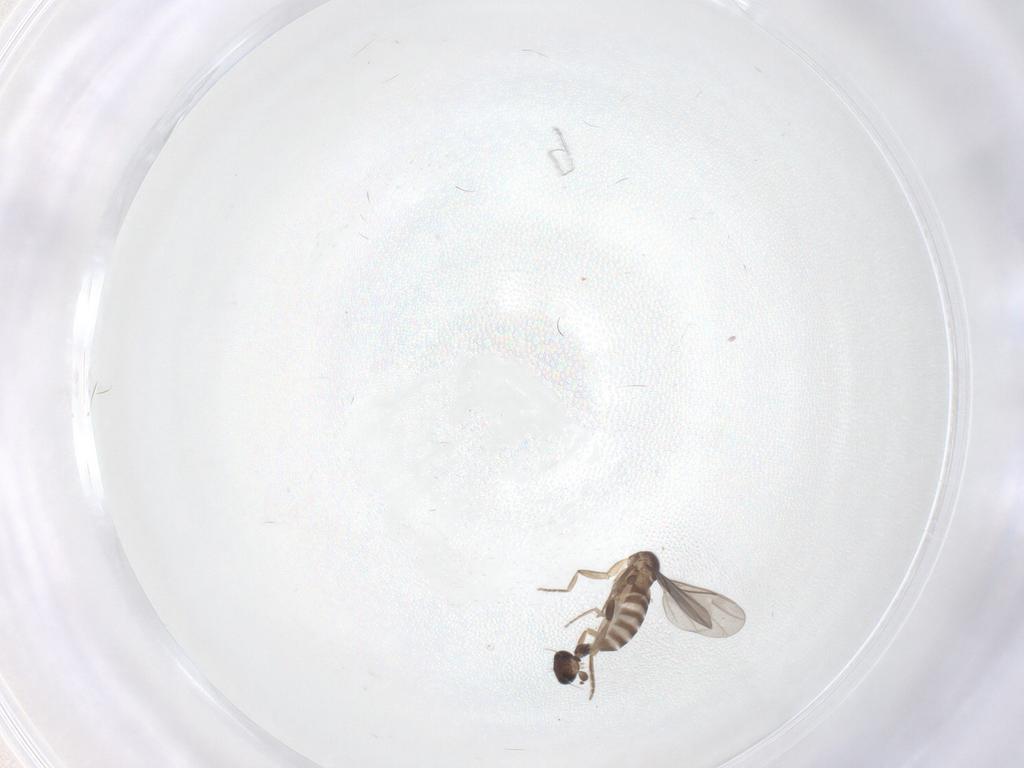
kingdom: Animalia
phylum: Arthropoda
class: Insecta
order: Diptera
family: Phoridae
